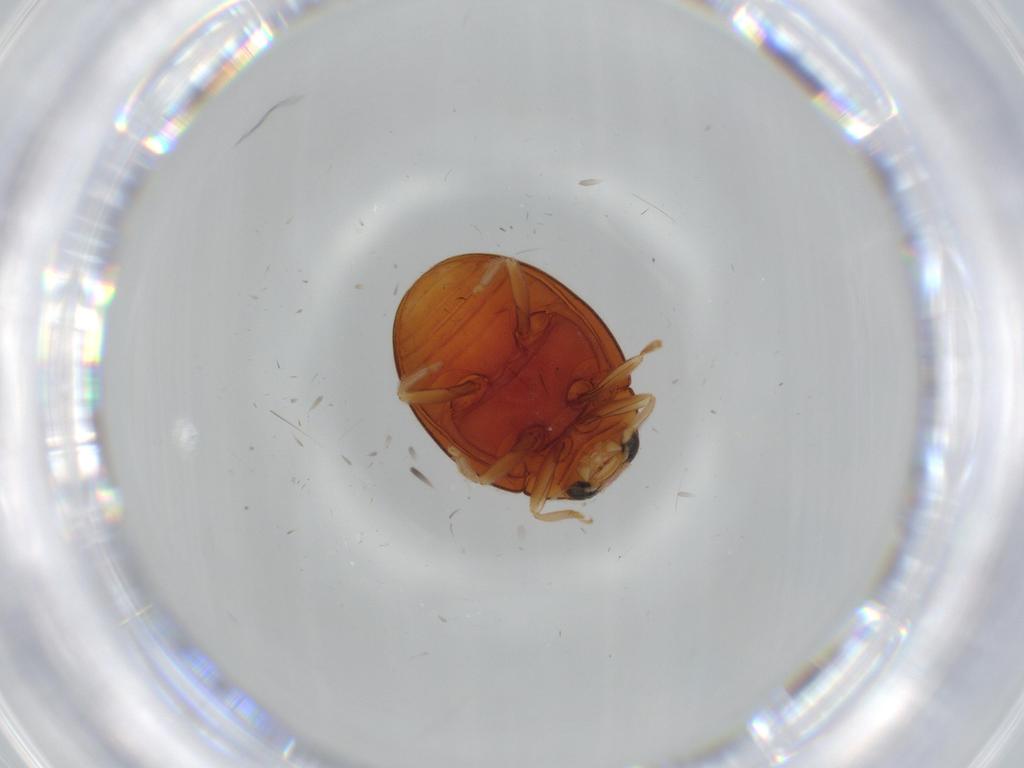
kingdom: Animalia
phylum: Arthropoda
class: Insecta
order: Coleoptera
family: Coccinellidae
